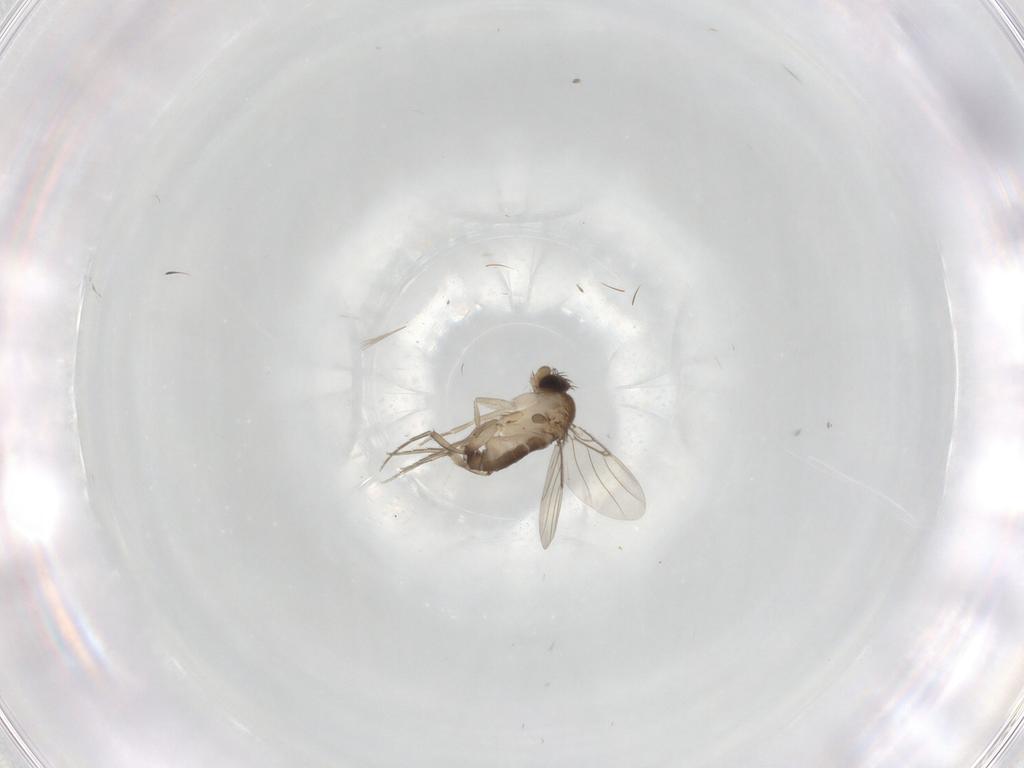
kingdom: Animalia
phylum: Arthropoda
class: Insecta
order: Diptera
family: Chironomidae
